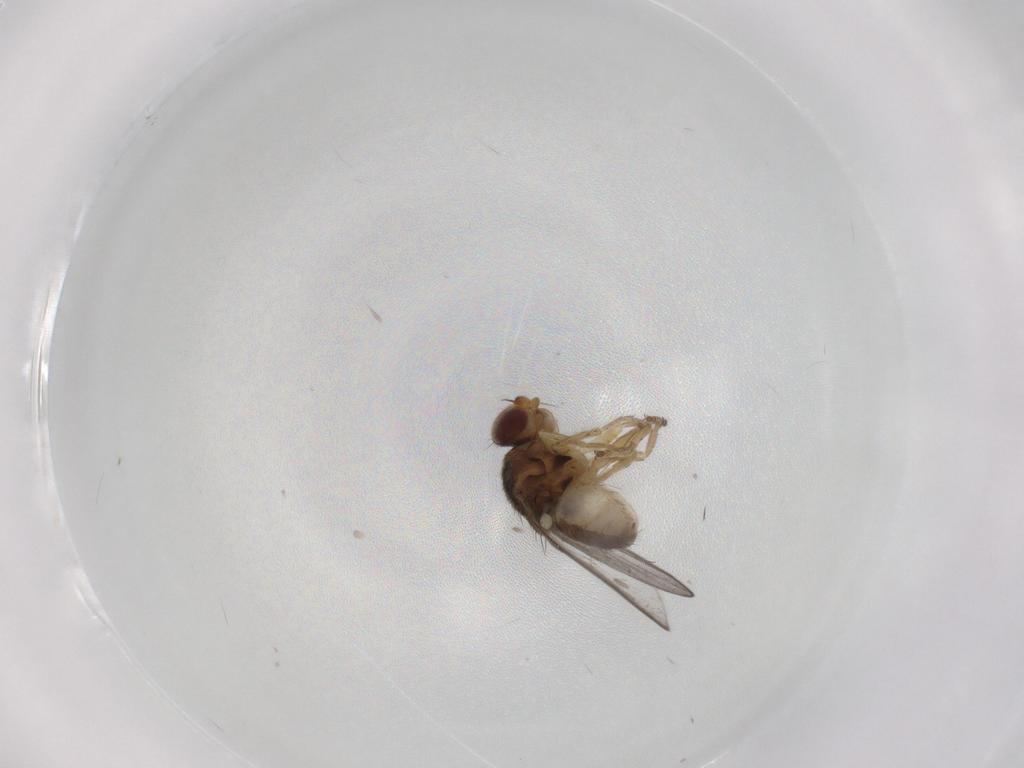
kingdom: Animalia
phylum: Arthropoda
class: Insecta
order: Diptera
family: Chloropidae
